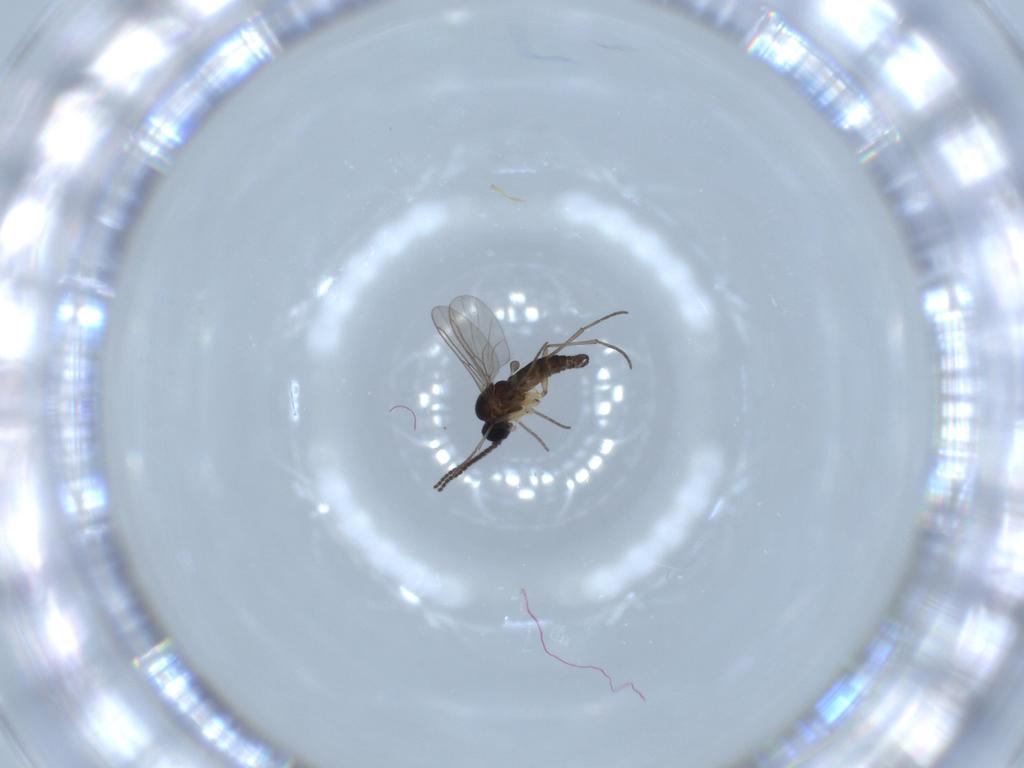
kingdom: Animalia
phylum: Arthropoda
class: Insecta
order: Diptera
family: Sciaridae
